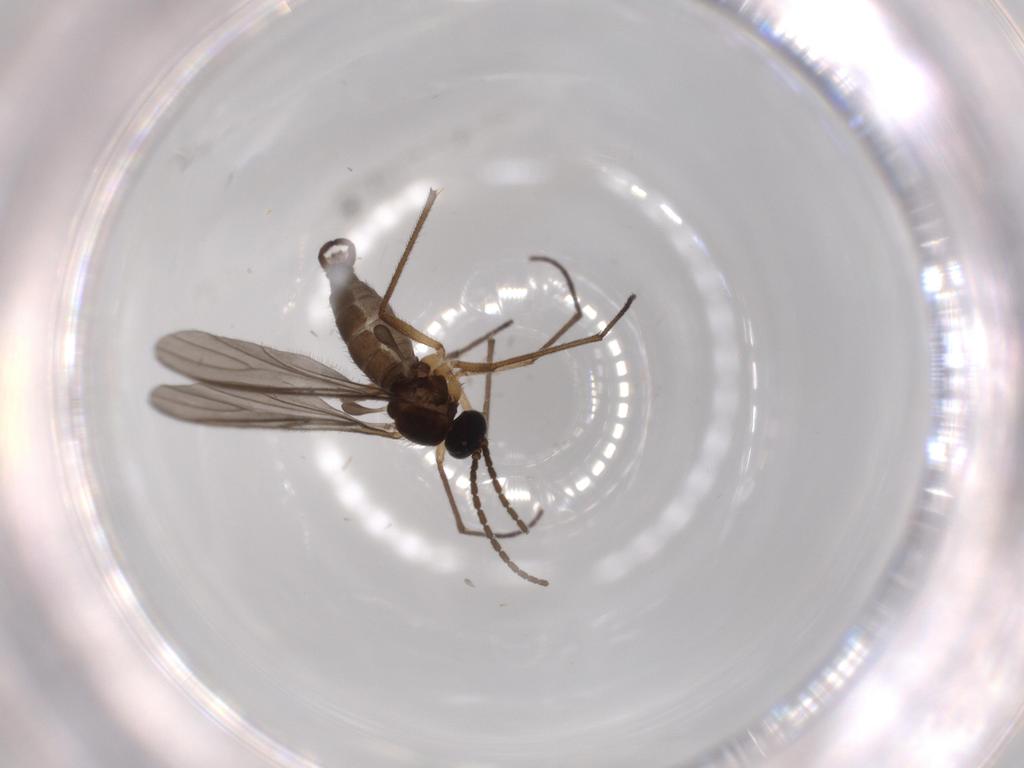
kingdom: Animalia
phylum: Arthropoda
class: Insecta
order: Diptera
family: Sciaridae
